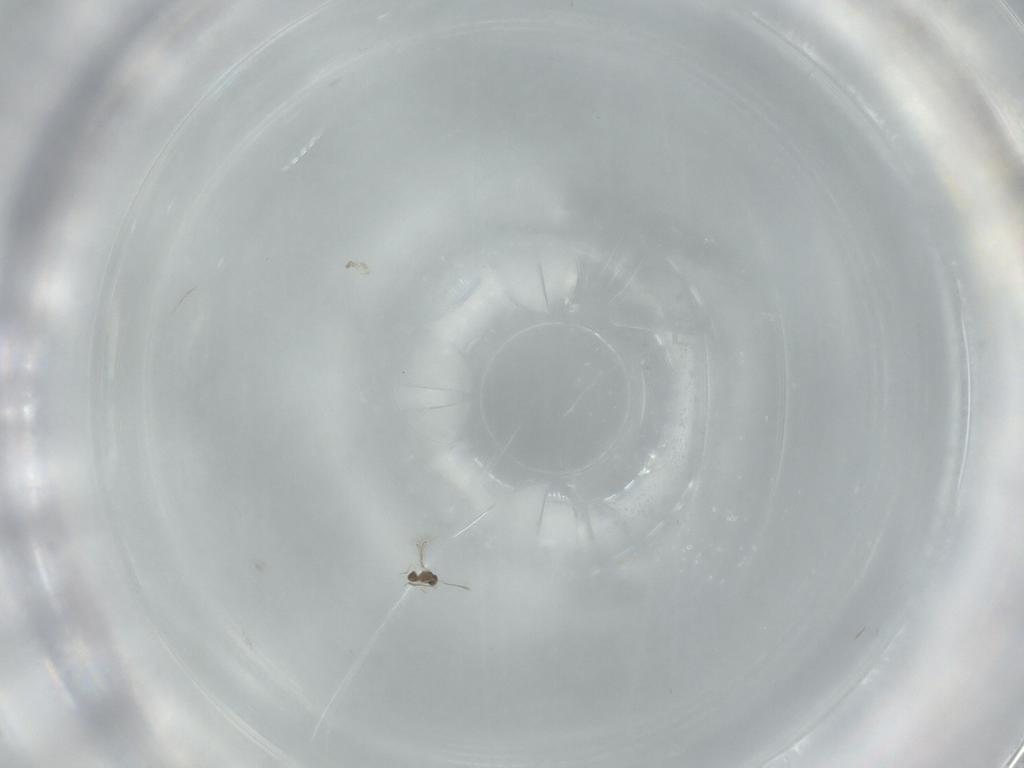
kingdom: Animalia
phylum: Arthropoda
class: Insecta
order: Hymenoptera
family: Mymaridae
